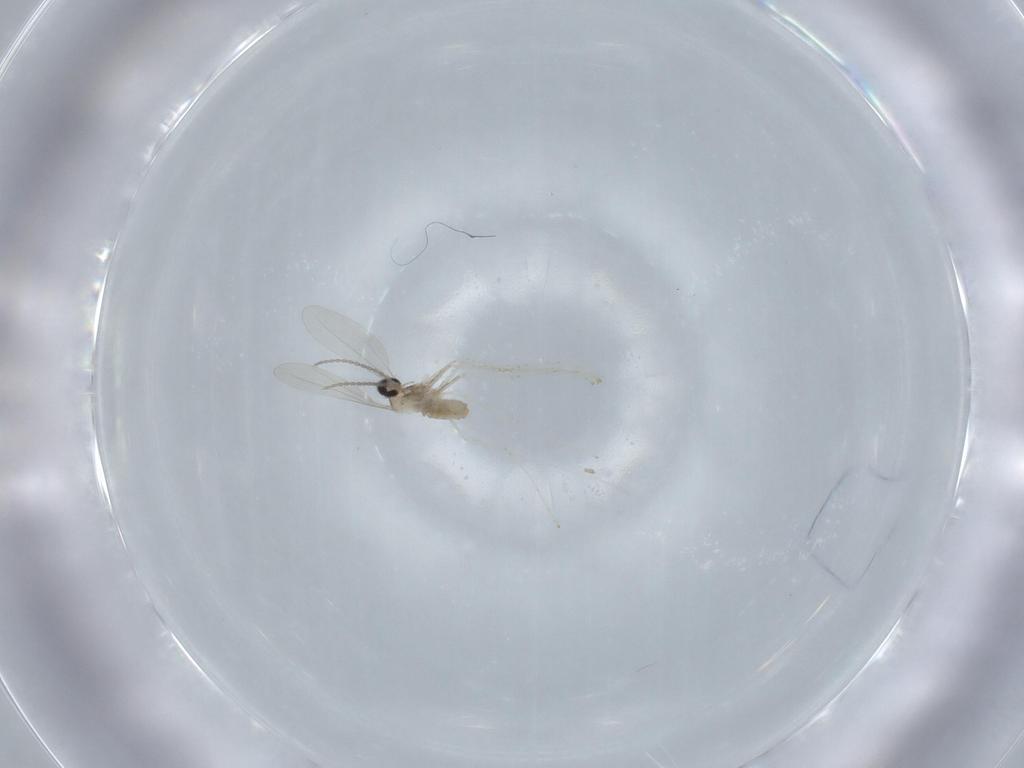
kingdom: Animalia
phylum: Arthropoda
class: Insecta
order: Diptera
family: Cecidomyiidae
